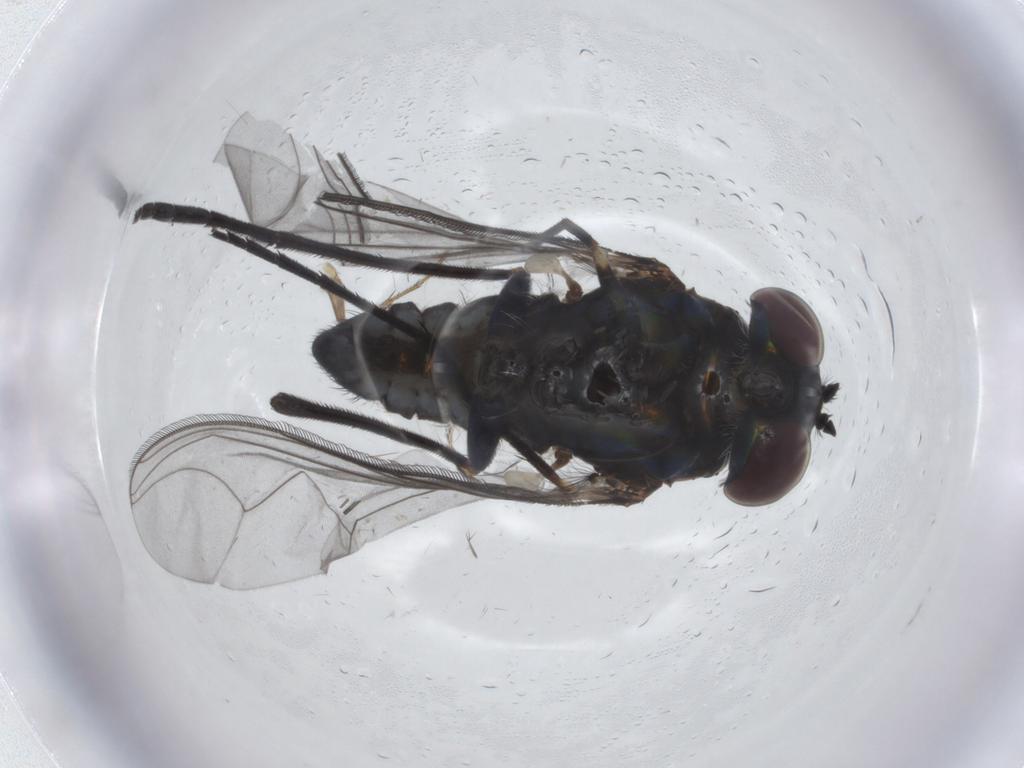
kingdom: Animalia
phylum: Arthropoda
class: Insecta
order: Diptera
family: Dolichopodidae
